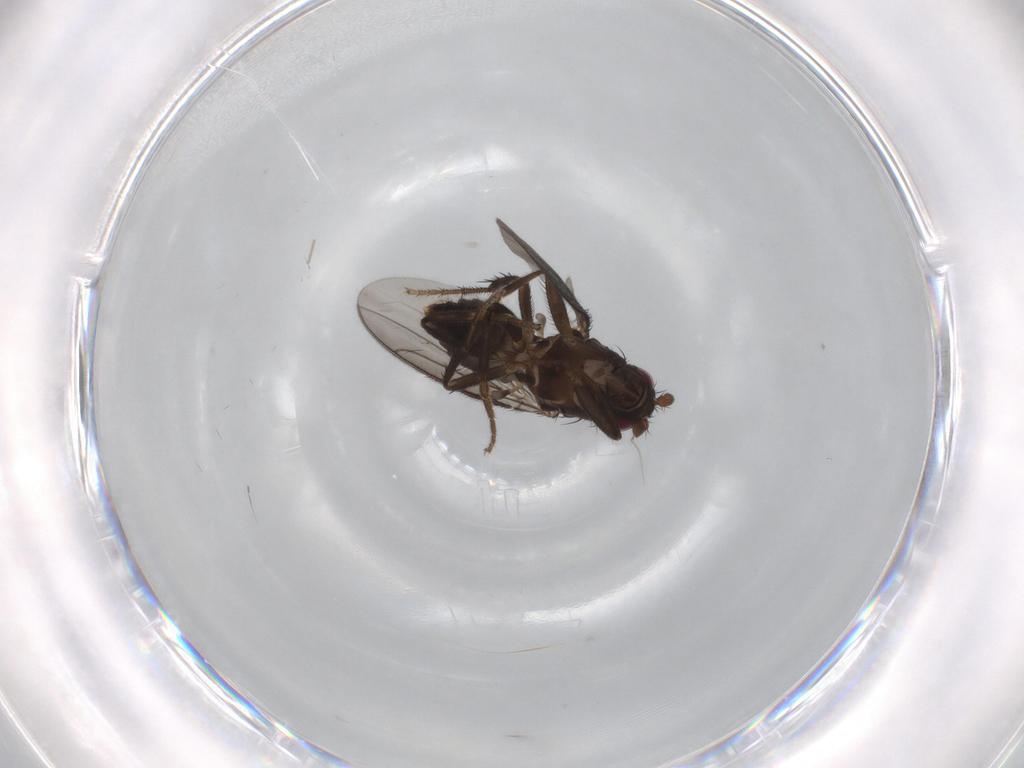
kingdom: Animalia
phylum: Arthropoda
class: Insecta
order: Diptera
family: Sphaeroceridae
